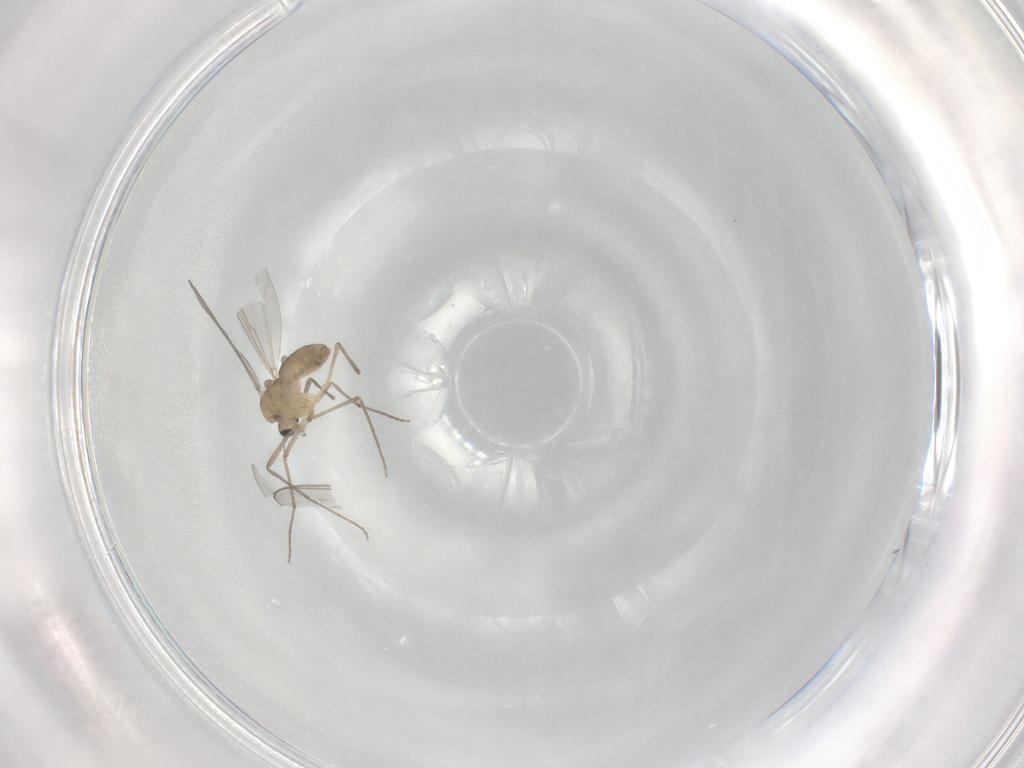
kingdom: Animalia
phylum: Arthropoda
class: Insecta
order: Diptera
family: Chironomidae
